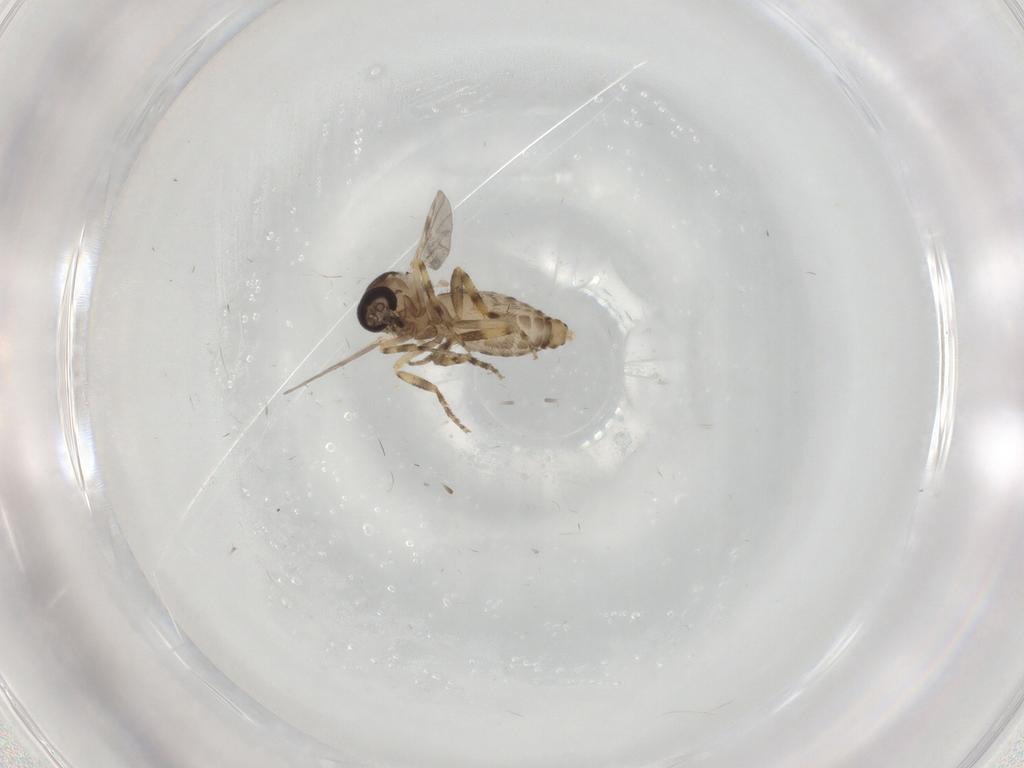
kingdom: Animalia
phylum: Arthropoda
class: Insecta
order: Diptera
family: Ceratopogonidae
